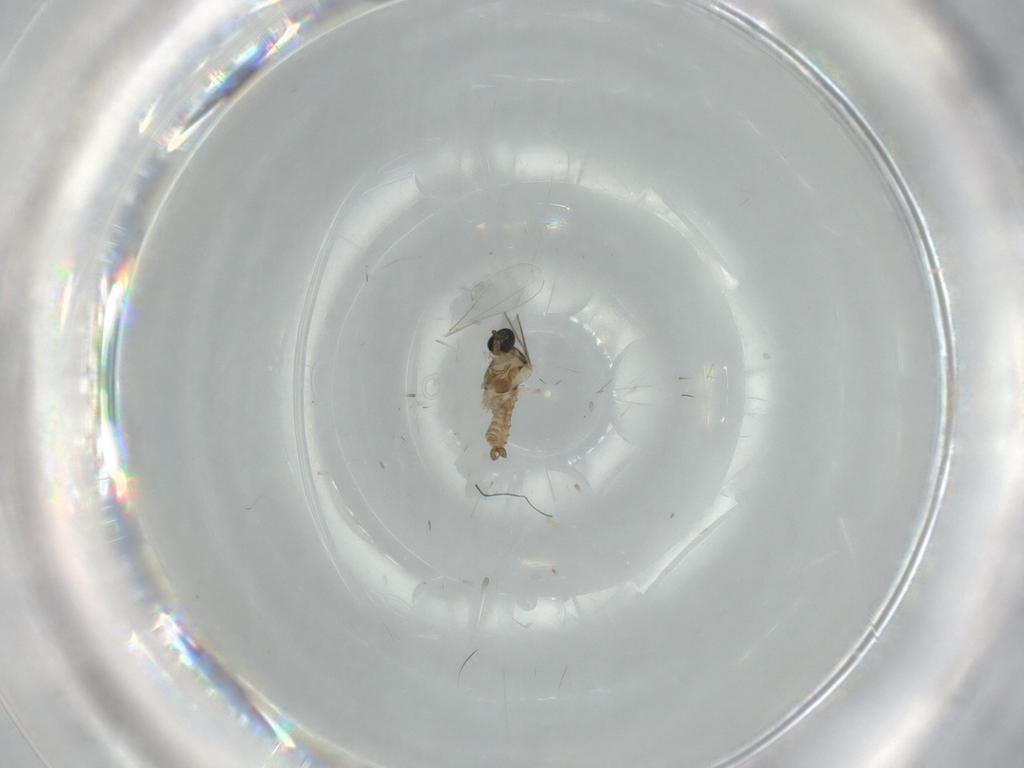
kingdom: Animalia
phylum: Arthropoda
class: Insecta
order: Diptera
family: Cecidomyiidae
